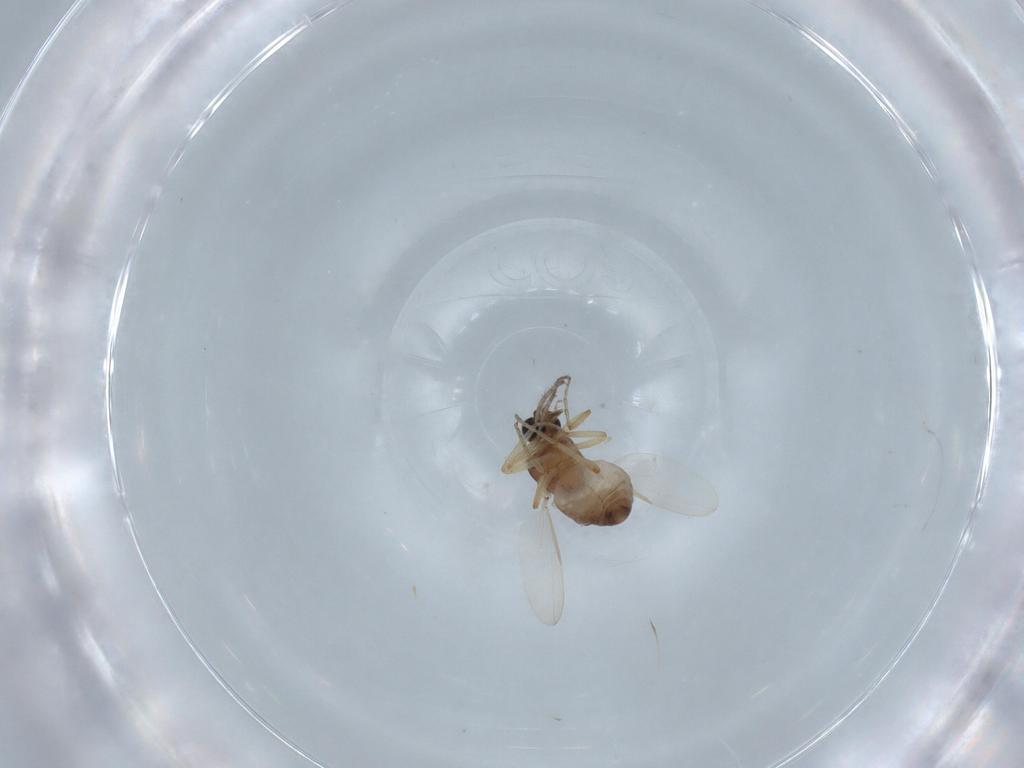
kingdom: Animalia
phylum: Arthropoda
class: Insecta
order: Diptera
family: Ceratopogonidae
